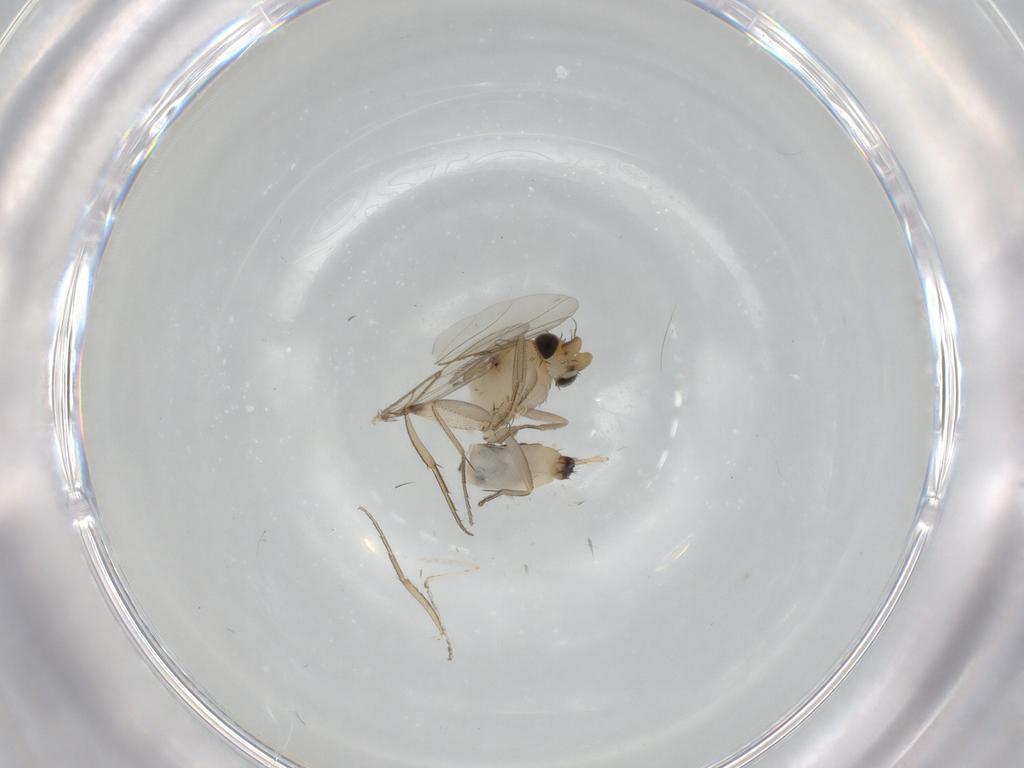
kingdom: Animalia
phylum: Arthropoda
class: Insecta
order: Diptera
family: Phoridae
